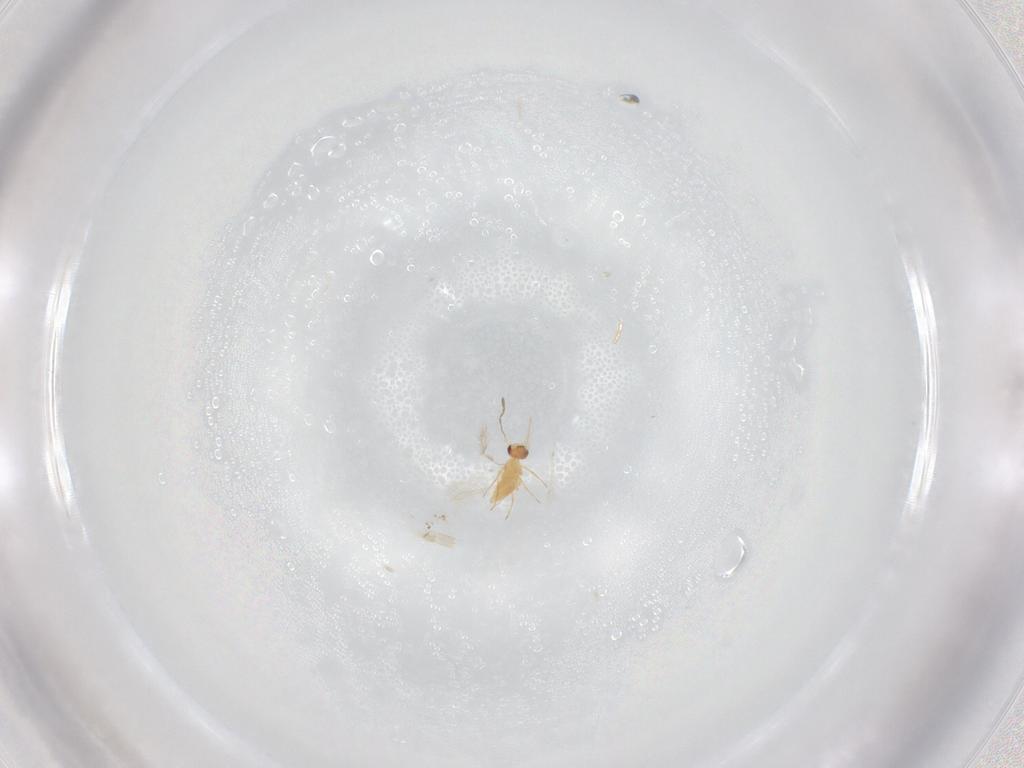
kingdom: Animalia
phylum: Arthropoda
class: Insecta
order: Hymenoptera
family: Mymaridae
